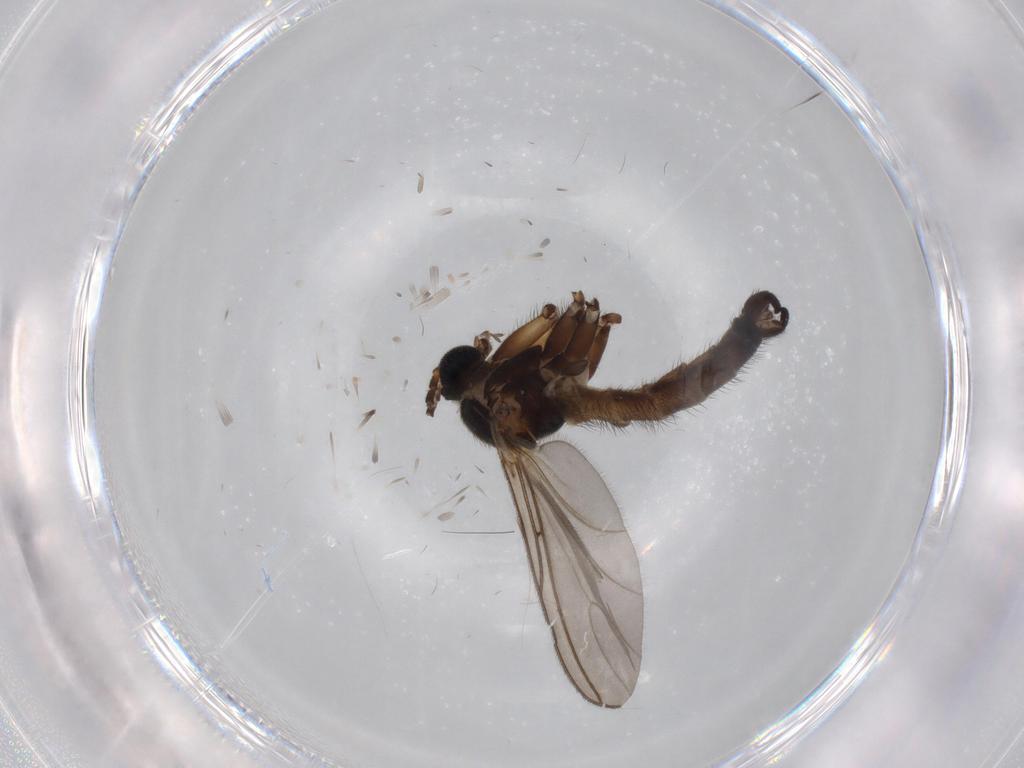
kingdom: Animalia
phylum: Arthropoda
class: Insecta
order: Diptera
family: Sciaridae
